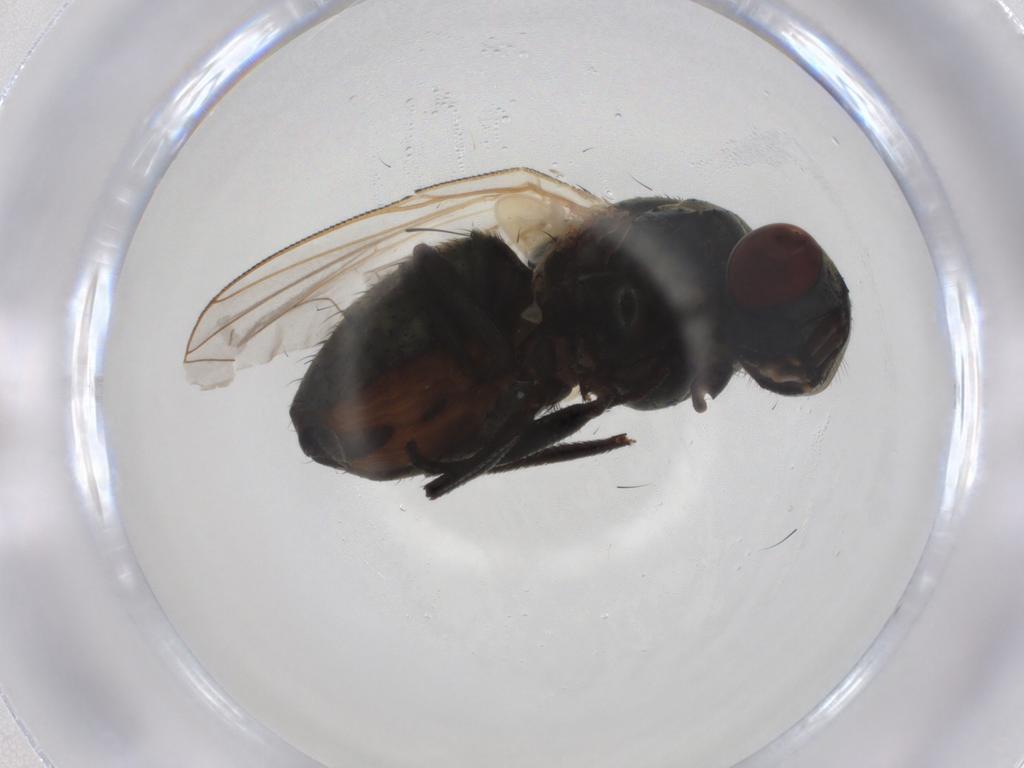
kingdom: Animalia
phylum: Arthropoda
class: Insecta
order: Diptera
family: Muscidae
